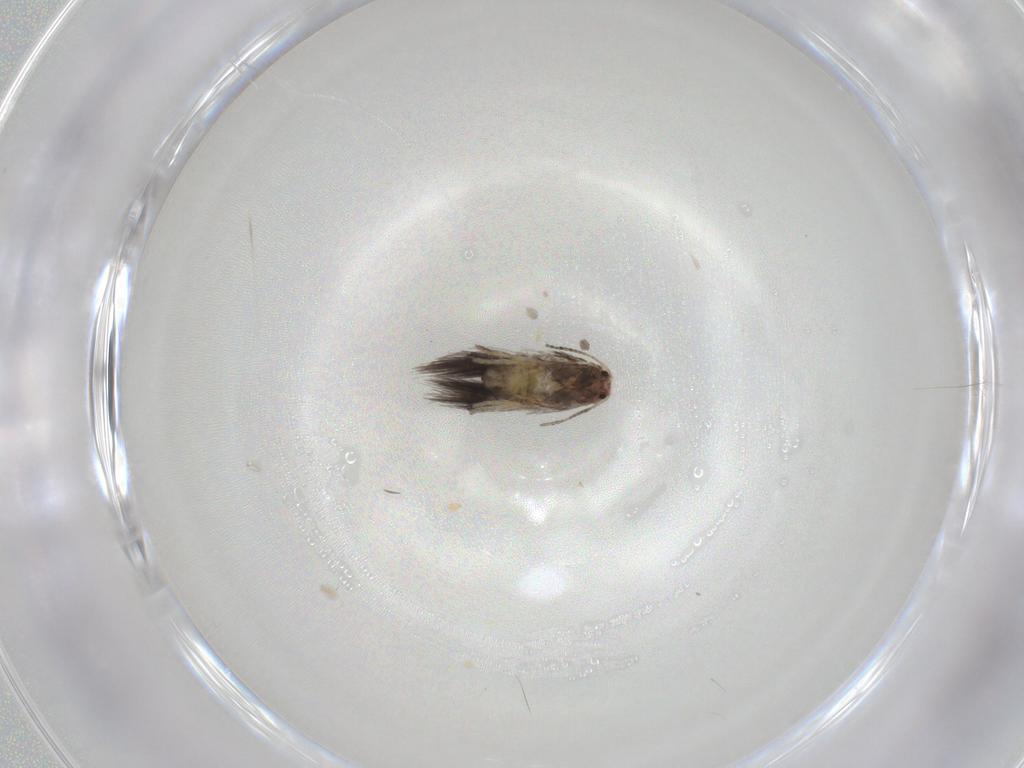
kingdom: Animalia
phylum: Arthropoda
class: Insecta
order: Lepidoptera
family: Nepticulidae
